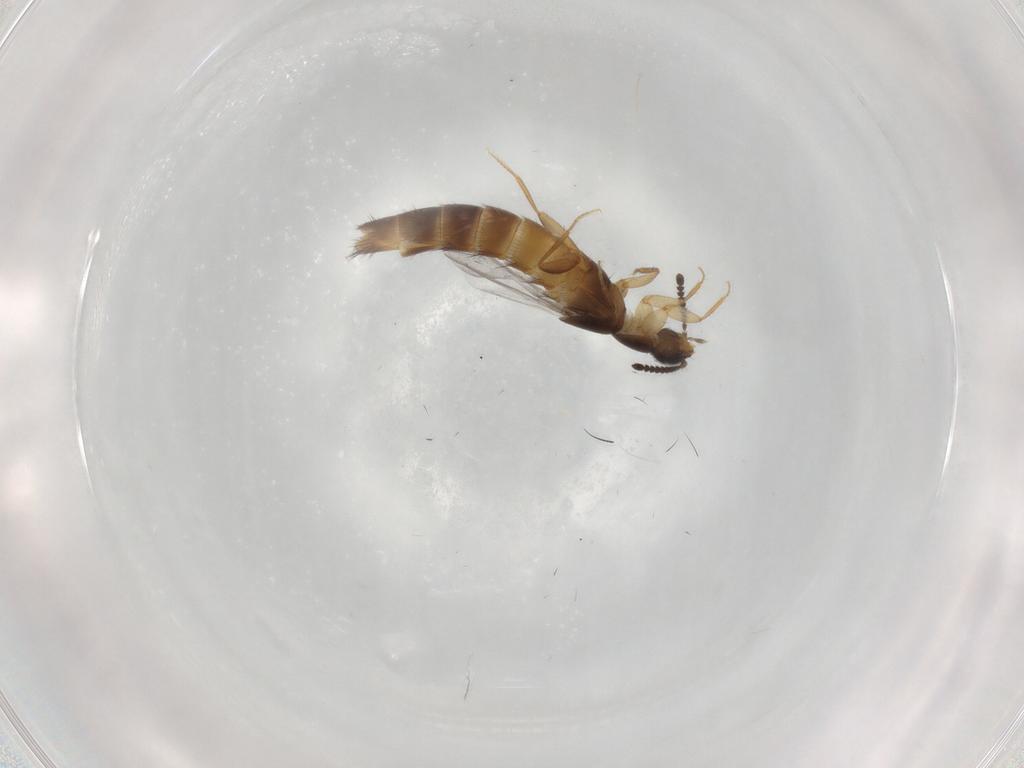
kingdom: Animalia
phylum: Arthropoda
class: Insecta
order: Coleoptera
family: Staphylinidae
